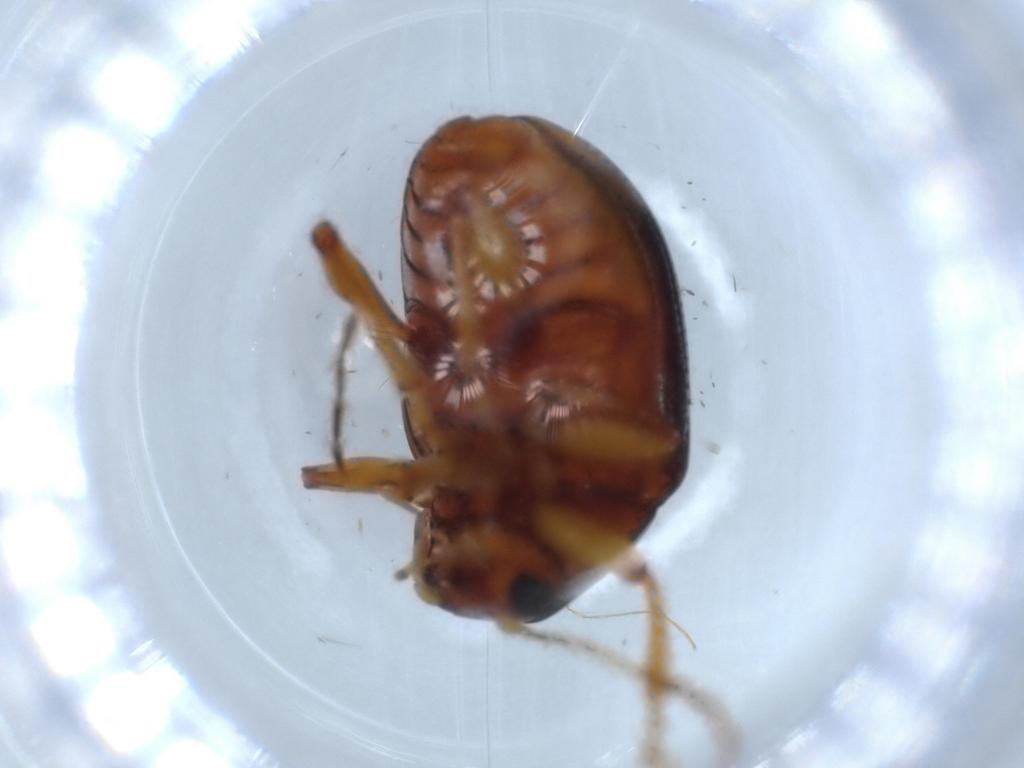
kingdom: Animalia
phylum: Arthropoda
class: Insecta
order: Coleoptera
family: Chrysomelidae
